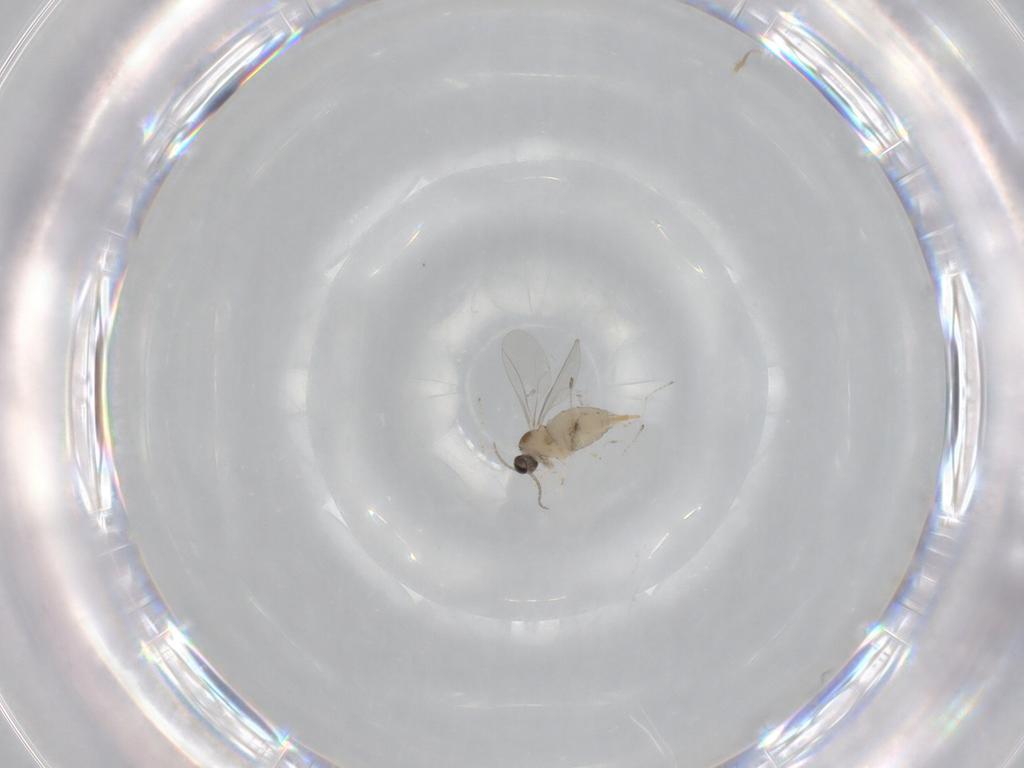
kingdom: Animalia
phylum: Arthropoda
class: Insecta
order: Diptera
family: Cecidomyiidae
